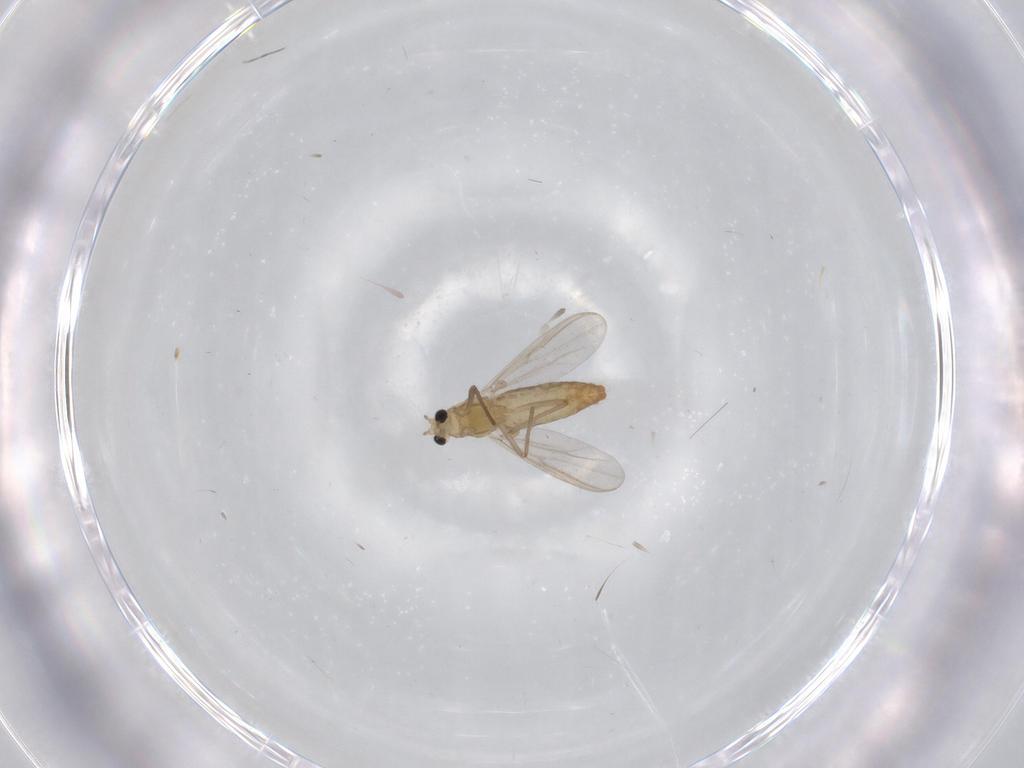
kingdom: Animalia
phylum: Arthropoda
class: Insecta
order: Diptera
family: Chironomidae
